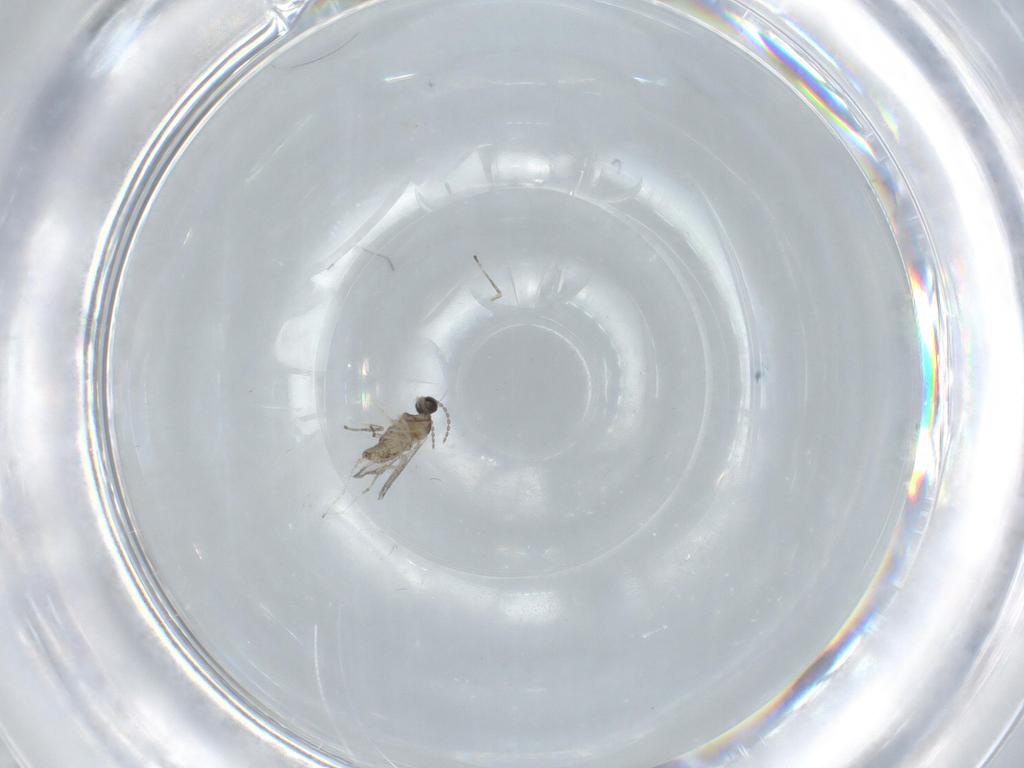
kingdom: Animalia
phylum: Arthropoda
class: Insecta
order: Diptera
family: Cecidomyiidae
